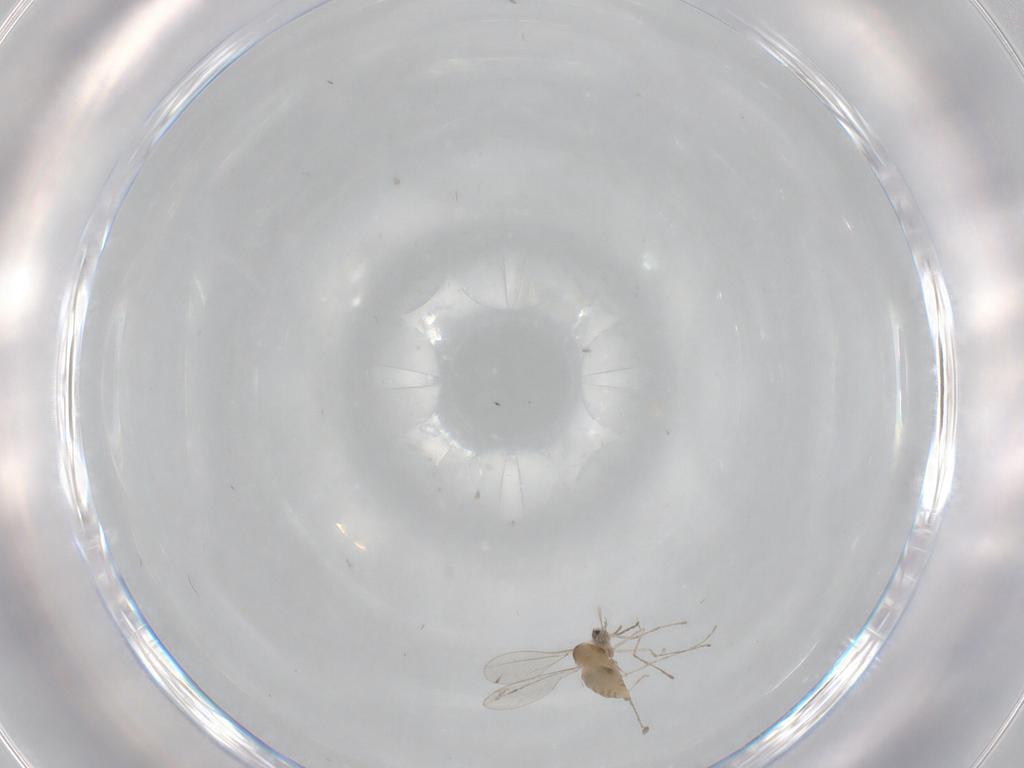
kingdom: Animalia
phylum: Arthropoda
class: Insecta
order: Diptera
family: Cecidomyiidae
